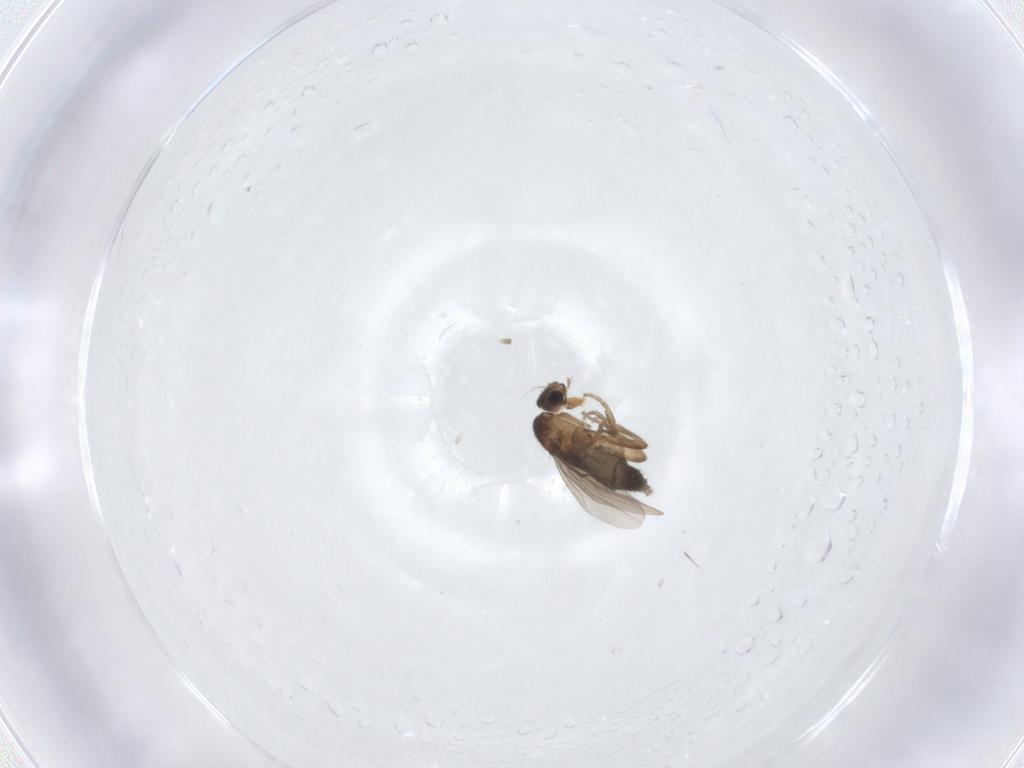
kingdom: Animalia
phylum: Arthropoda
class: Insecta
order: Diptera
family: Phoridae
